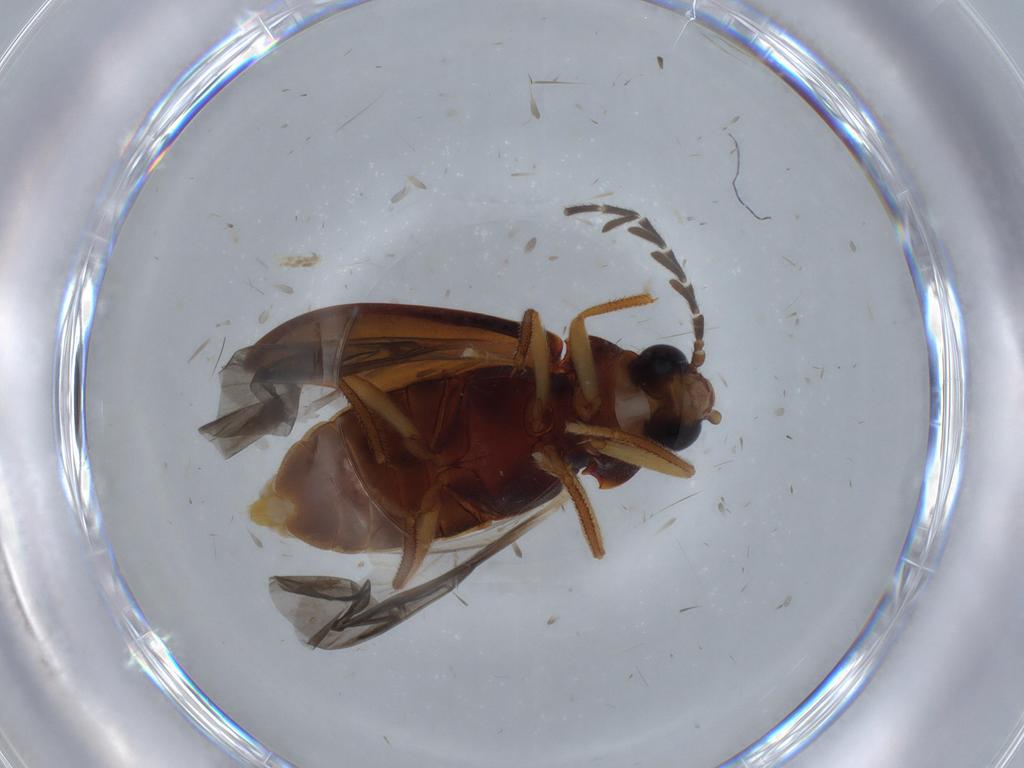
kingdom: Animalia
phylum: Arthropoda
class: Insecta
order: Coleoptera
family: Ptilodactylidae
